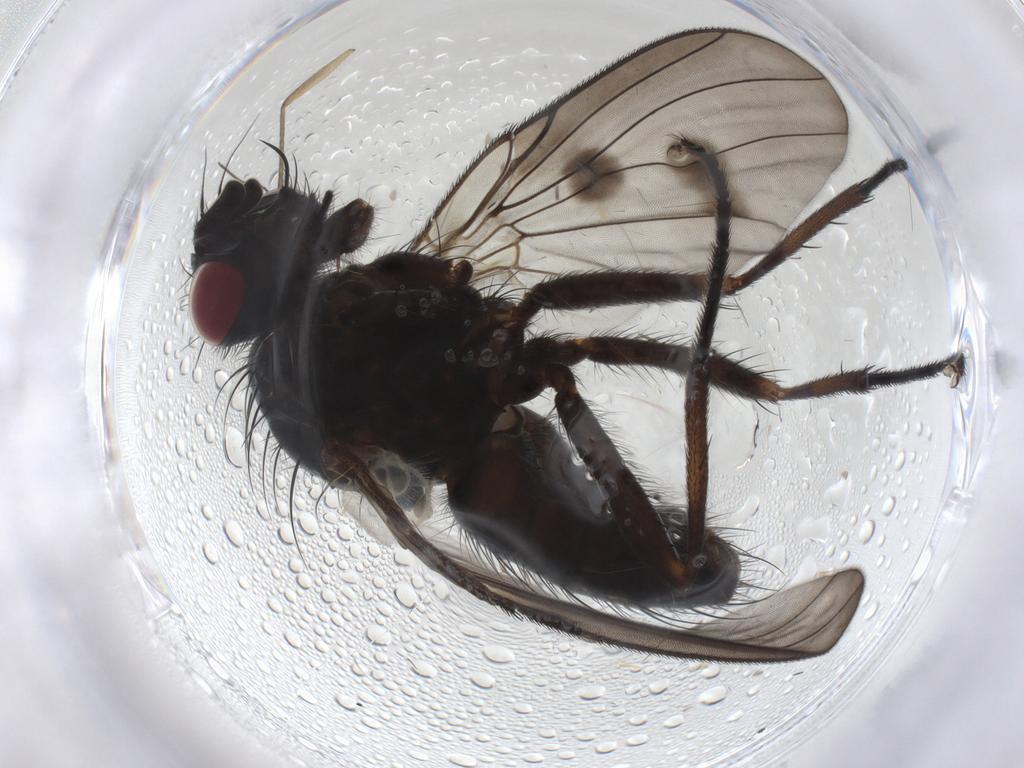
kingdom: Animalia
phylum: Arthropoda
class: Insecta
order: Diptera
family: Muscidae
